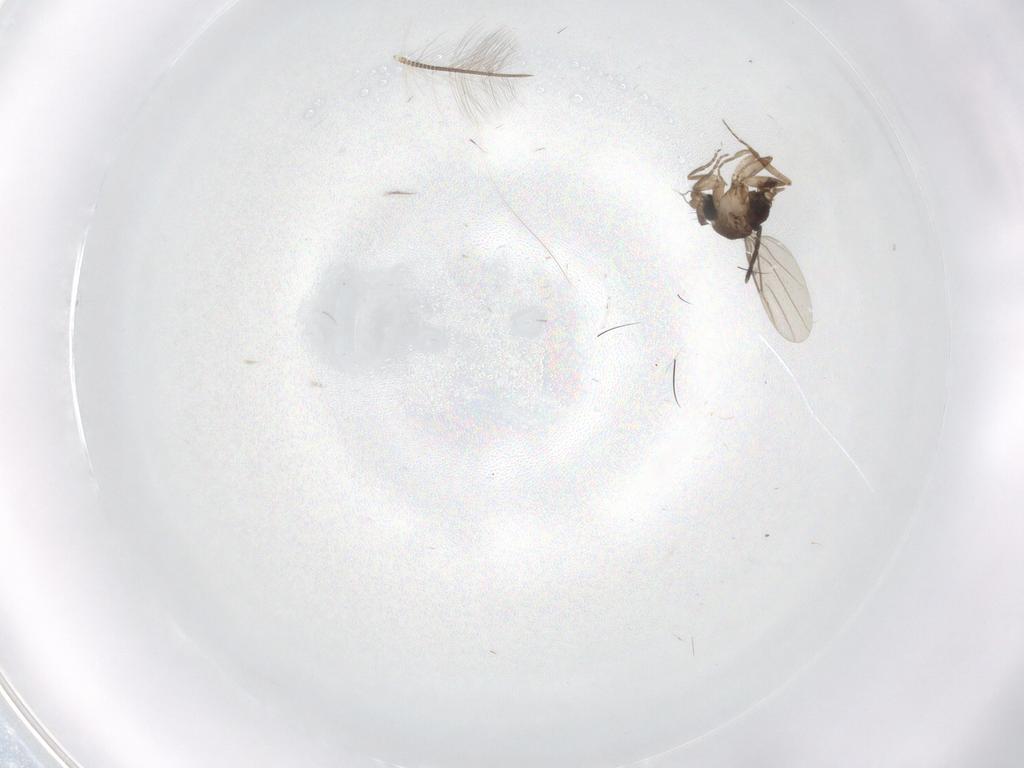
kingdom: Animalia
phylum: Arthropoda
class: Insecta
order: Diptera
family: Phoridae
